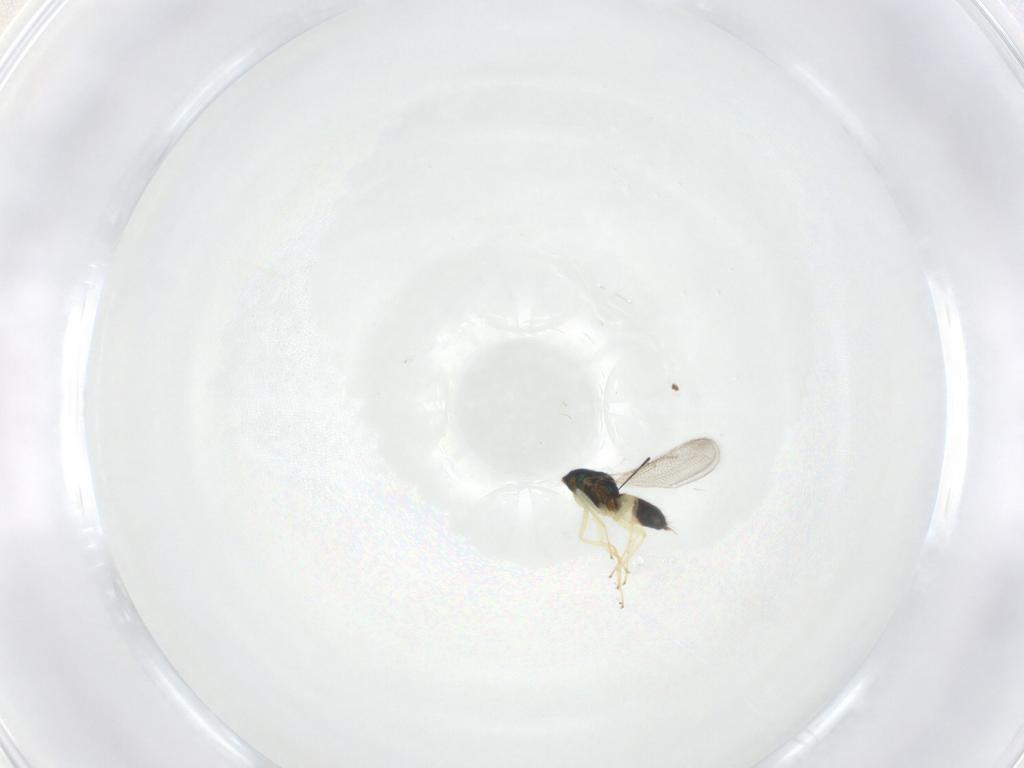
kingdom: Animalia
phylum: Arthropoda
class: Insecta
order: Hymenoptera
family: Eulophidae
